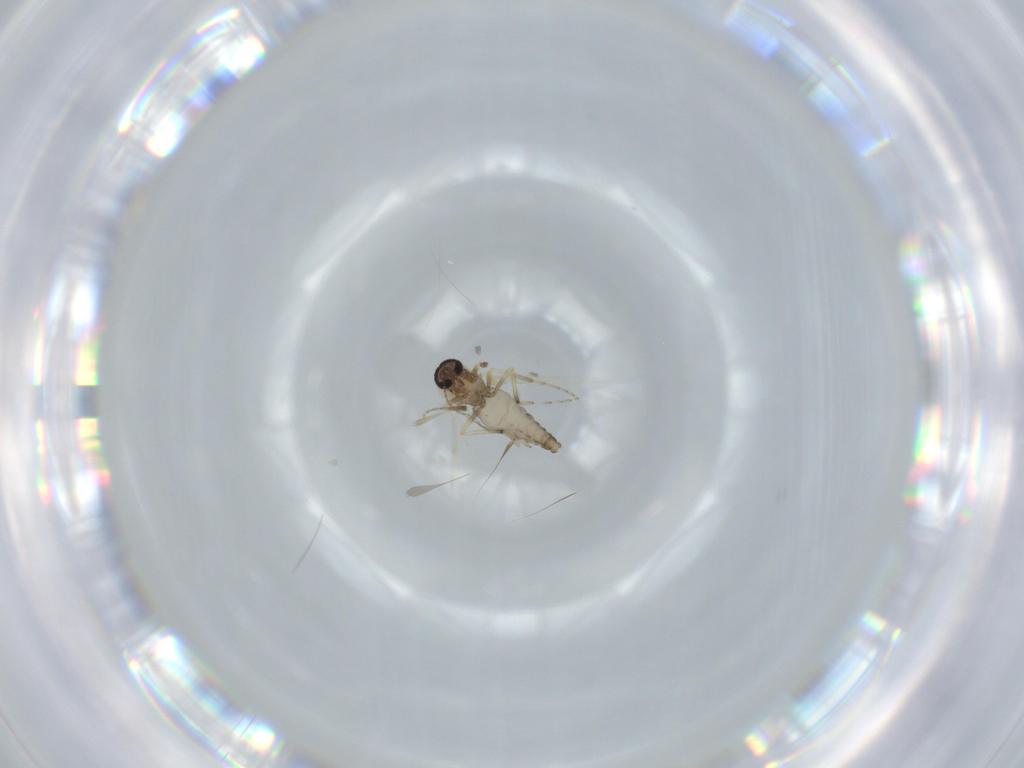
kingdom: Animalia
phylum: Arthropoda
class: Insecta
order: Diptera
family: Ceratopogonidae
